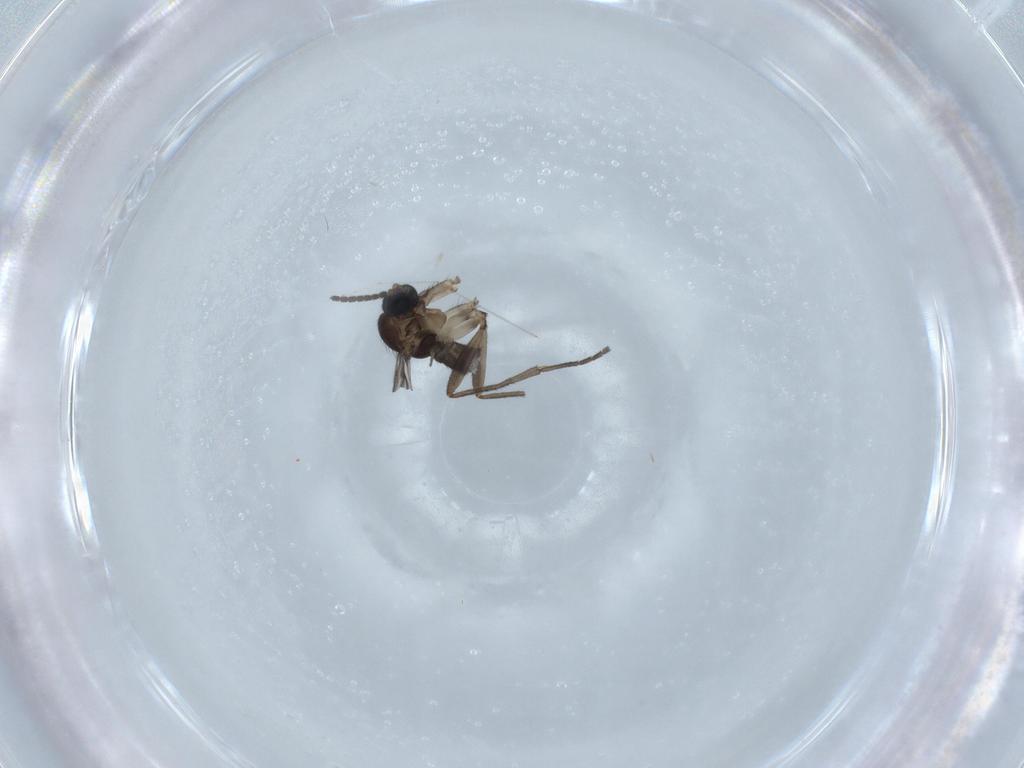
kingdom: Animalia
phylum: Arthropoda
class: Insecta
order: Diptera
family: Sciaridae
